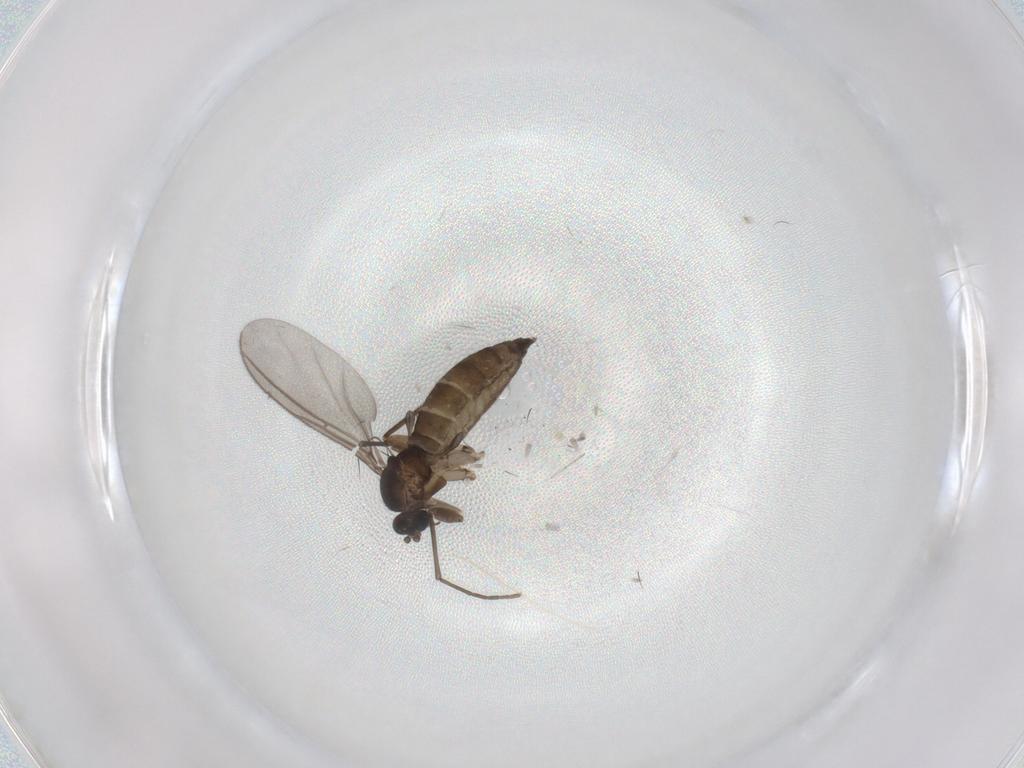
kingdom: Animalia
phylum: Arthropoda
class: Insecta
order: Diptera
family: Sciaridae
